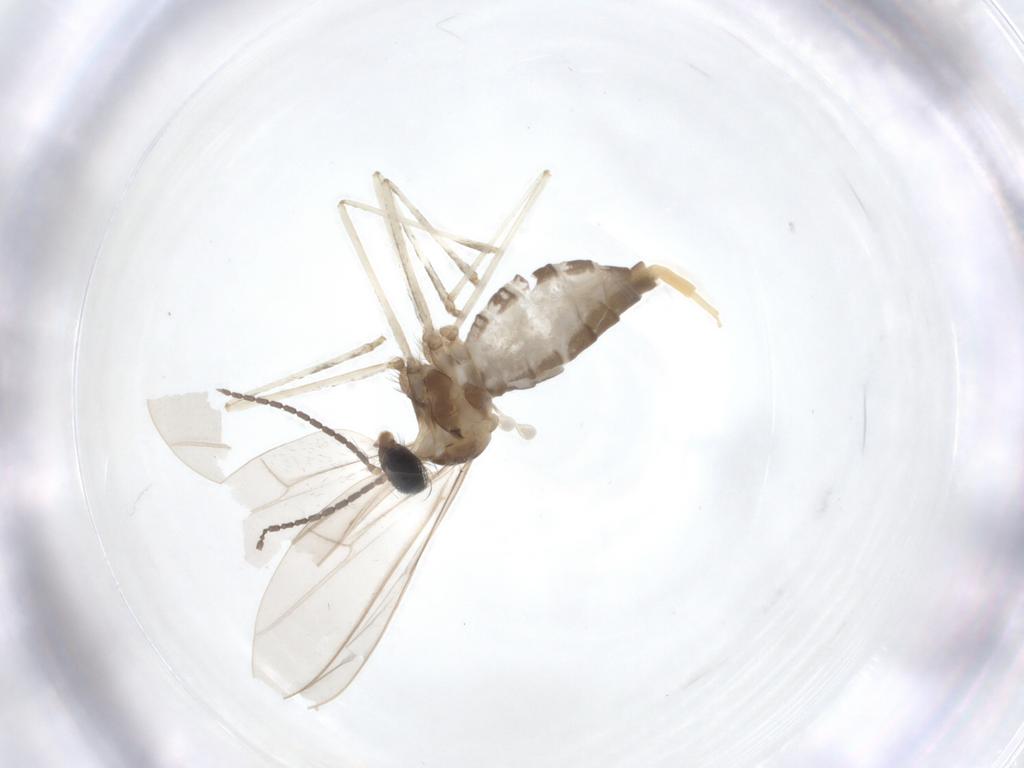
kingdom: Animalia
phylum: Arthropoda
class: Insecta
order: Diptera
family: Cecidomyiidae
